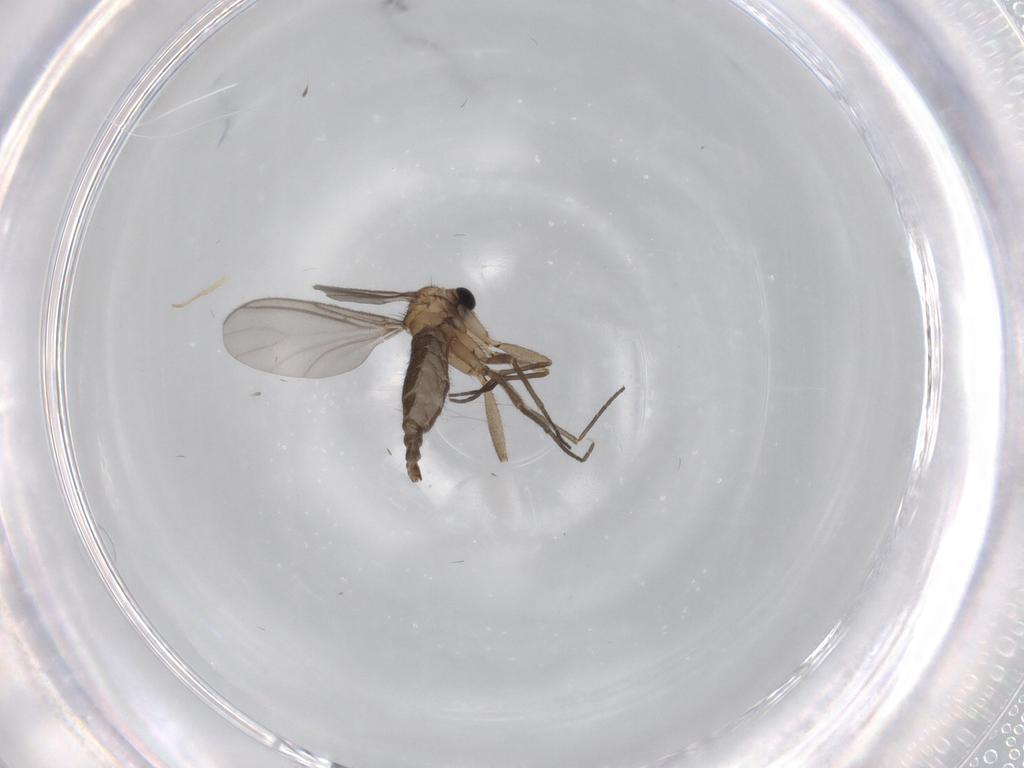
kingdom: Animalia
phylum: Arthropoda
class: Insecta
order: Diptera
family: Sciaridae
